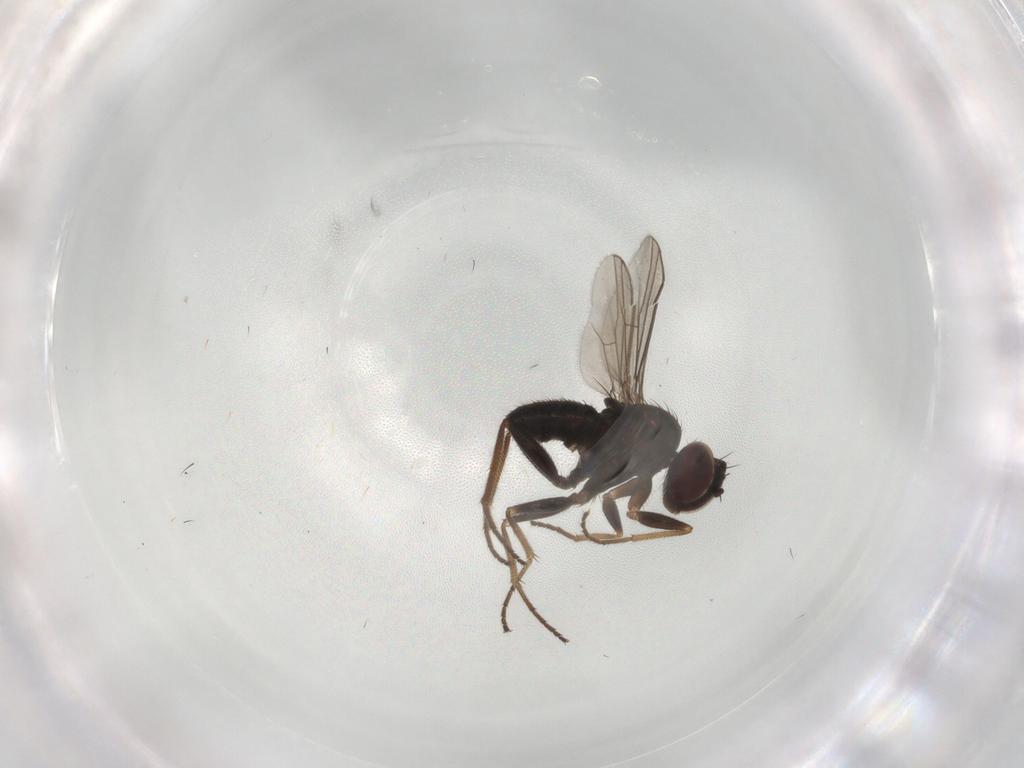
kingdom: Animalia
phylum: Arthropoda
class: Insecta
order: Diptera
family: Dolichopodidae
